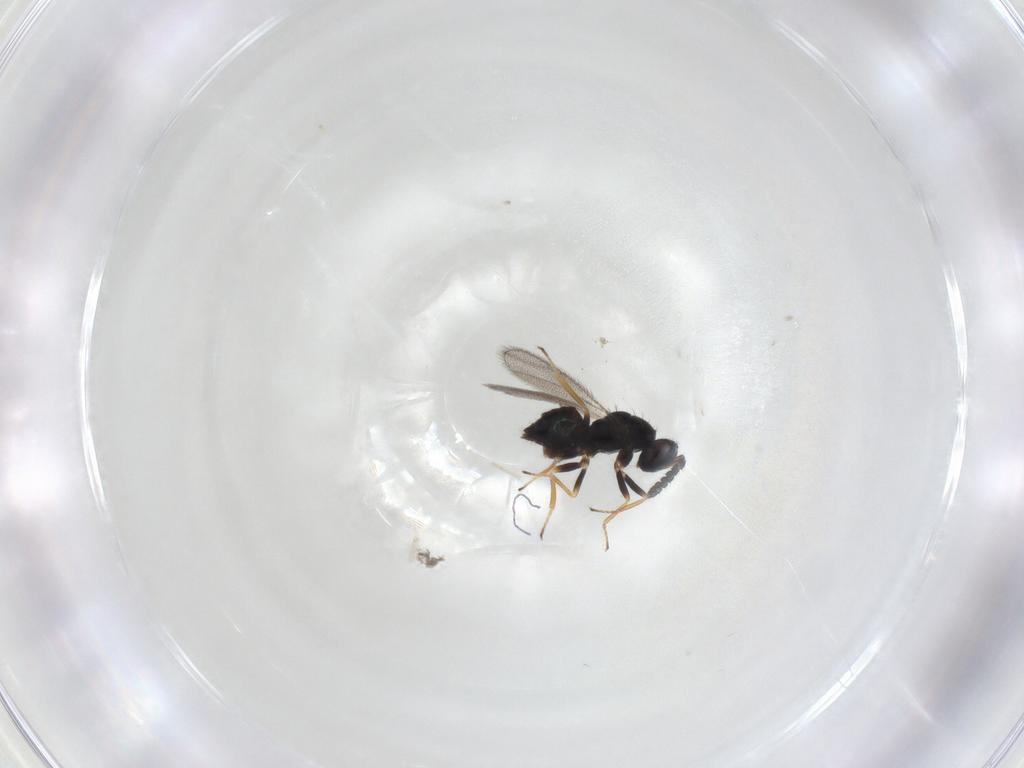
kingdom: Animalia
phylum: Arthropoda
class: Insecta
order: Hymenoptera
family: Eulophidae
